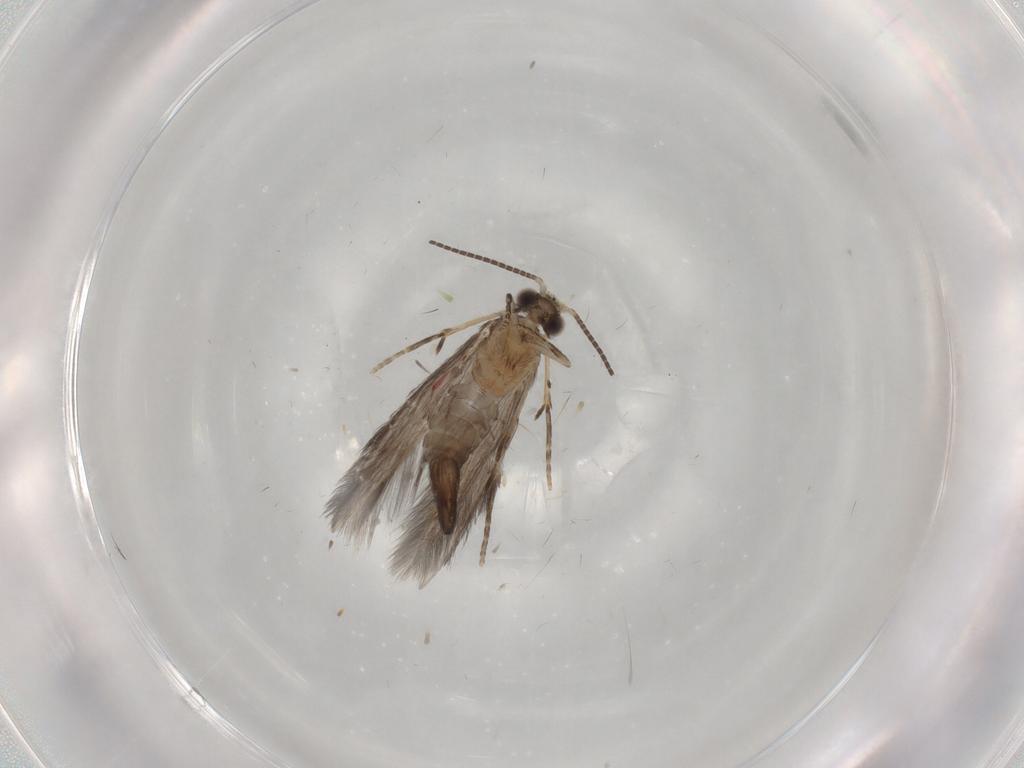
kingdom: Animalia
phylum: Arthropoda
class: Insecta
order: Trichoptera
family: Hydroptilidae
